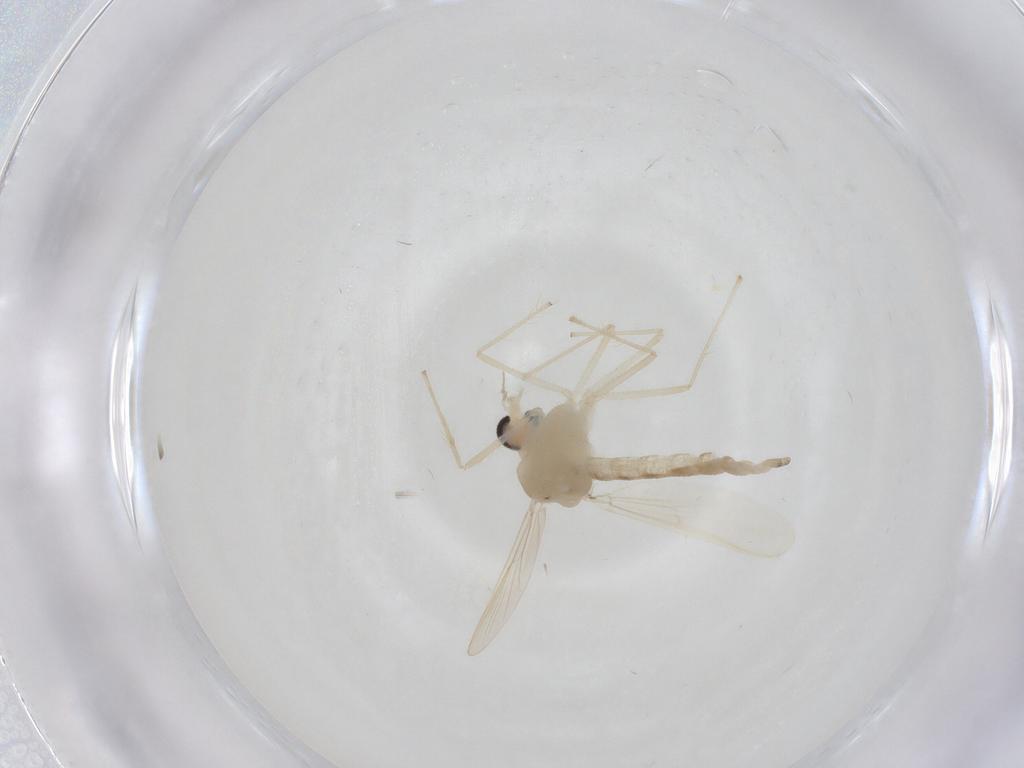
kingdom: Animalia
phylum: Arthropoda
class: Insecta
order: Diptera
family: Chironomidae
